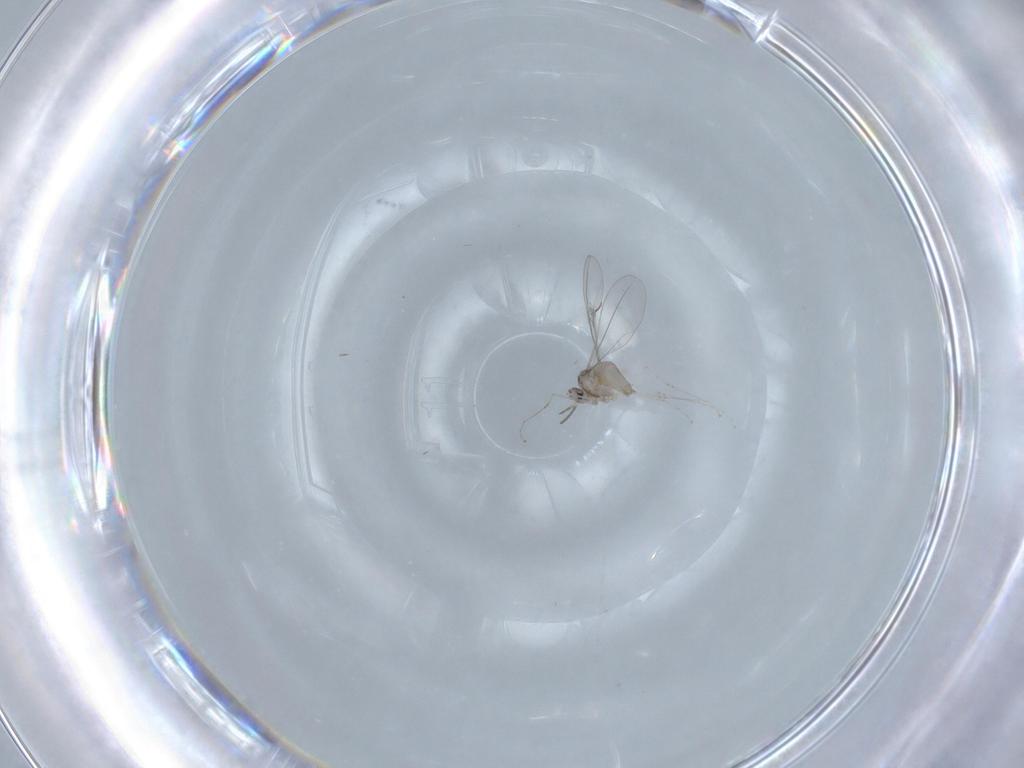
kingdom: Animalia
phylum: Arthropoda
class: Insecta
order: Diptera
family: Cecidomyiidae
